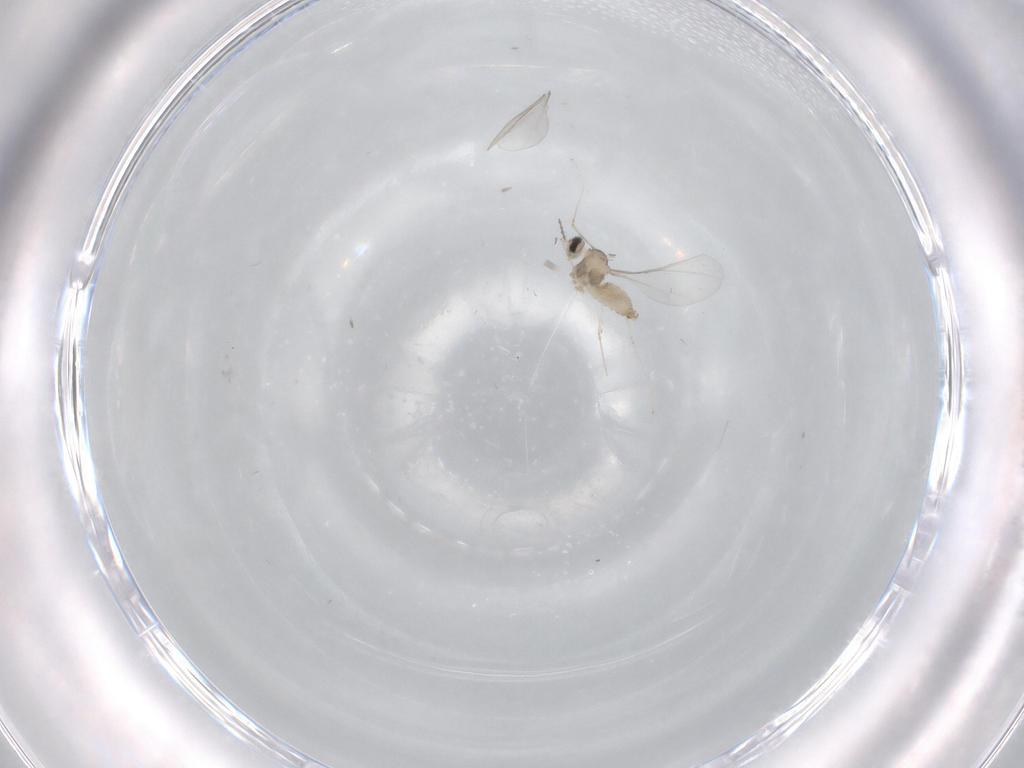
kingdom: Animalia
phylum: Arthropoda
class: Insecta
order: Diptera
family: Cecidomyiidae
